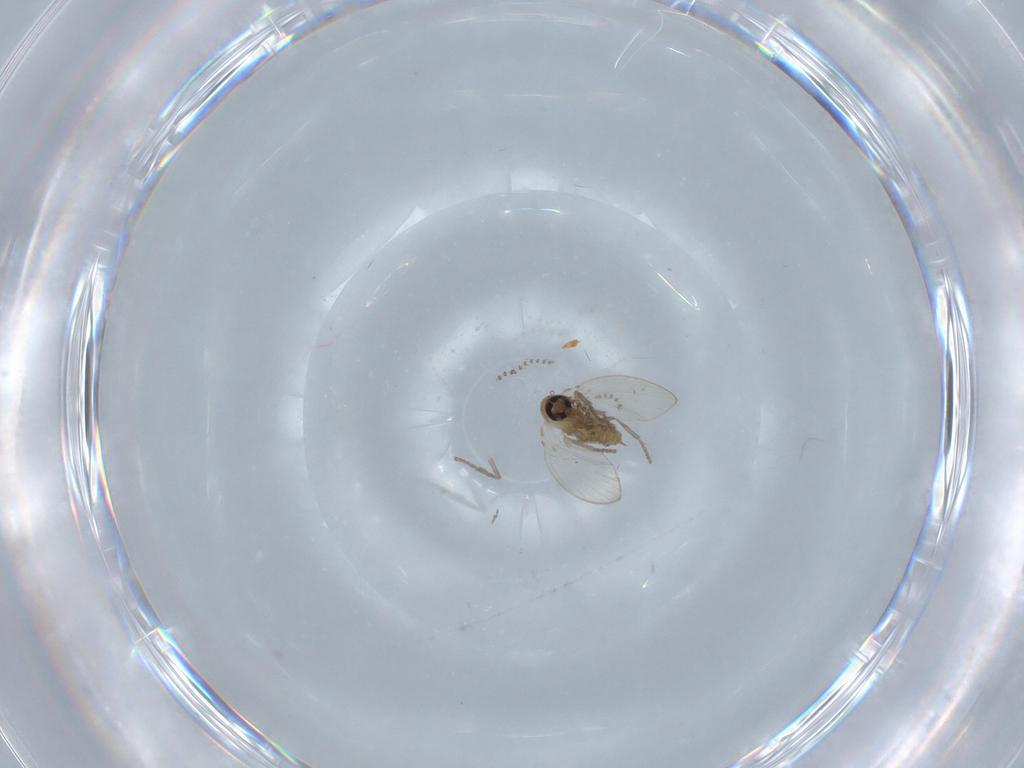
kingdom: Animalia
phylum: Arthropoda
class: Insecta
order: Diptera
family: Psychodidae
